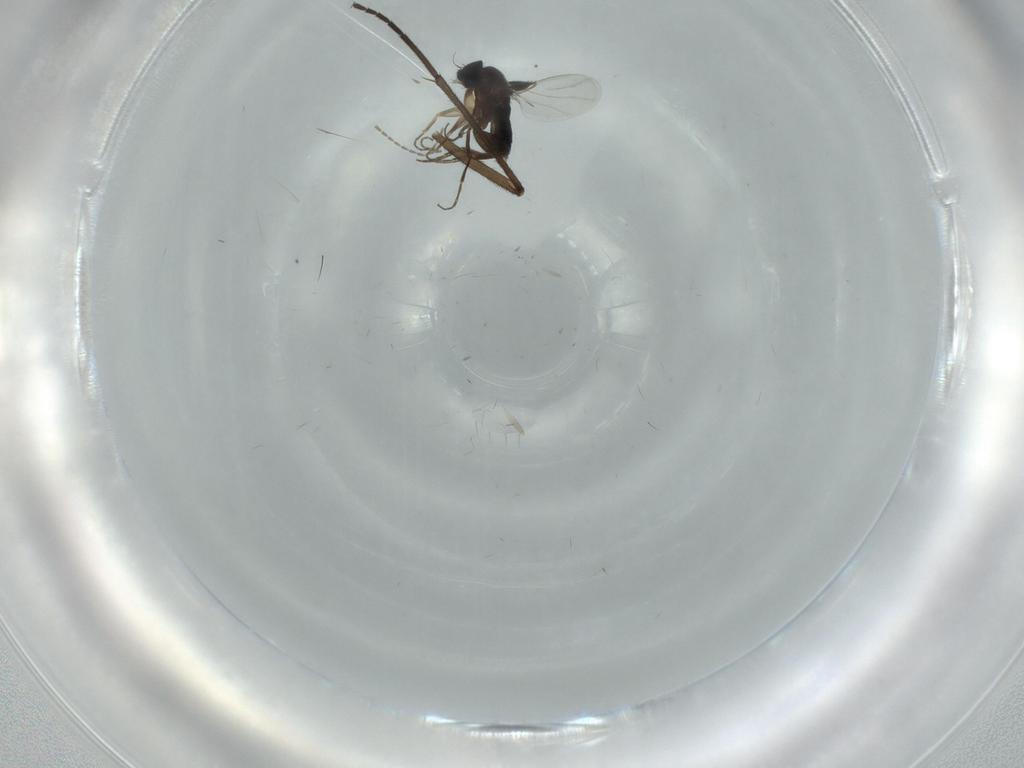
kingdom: Animalia
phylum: Arthropoda
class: Insecta
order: Diptera
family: Phoridae
